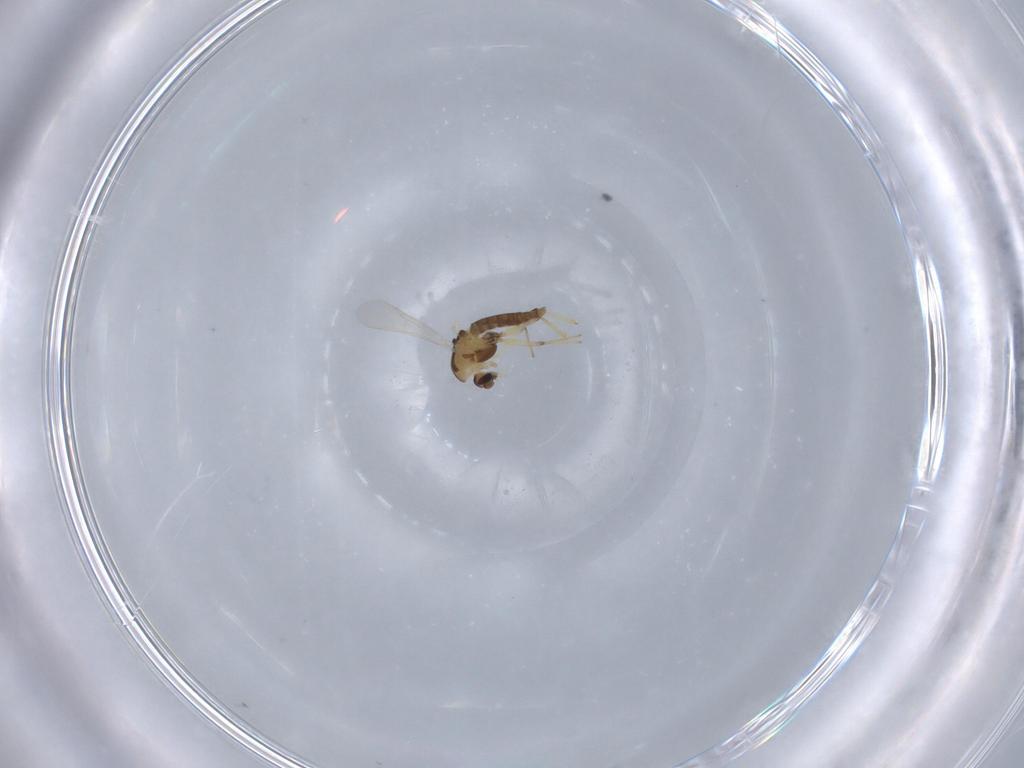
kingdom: Animalia
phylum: Arthropoda
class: Insecta
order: Diptera
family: Chironomidae
